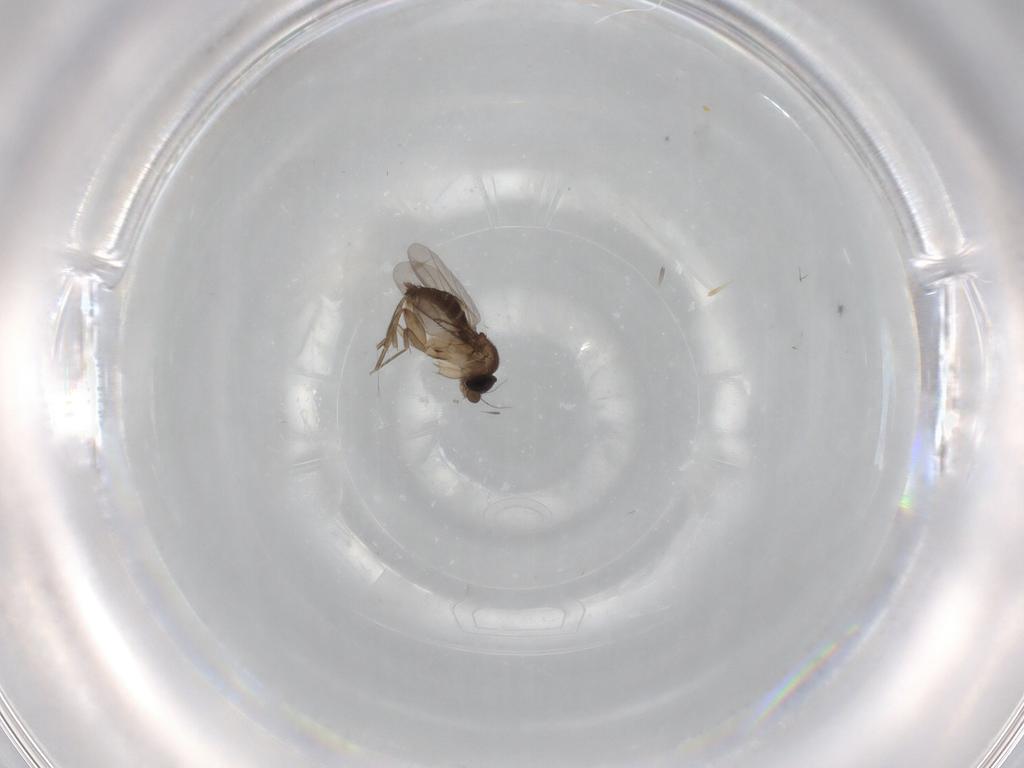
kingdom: Animalia
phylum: Arthropoda
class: Insecta
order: Diptera
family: Phoridae
